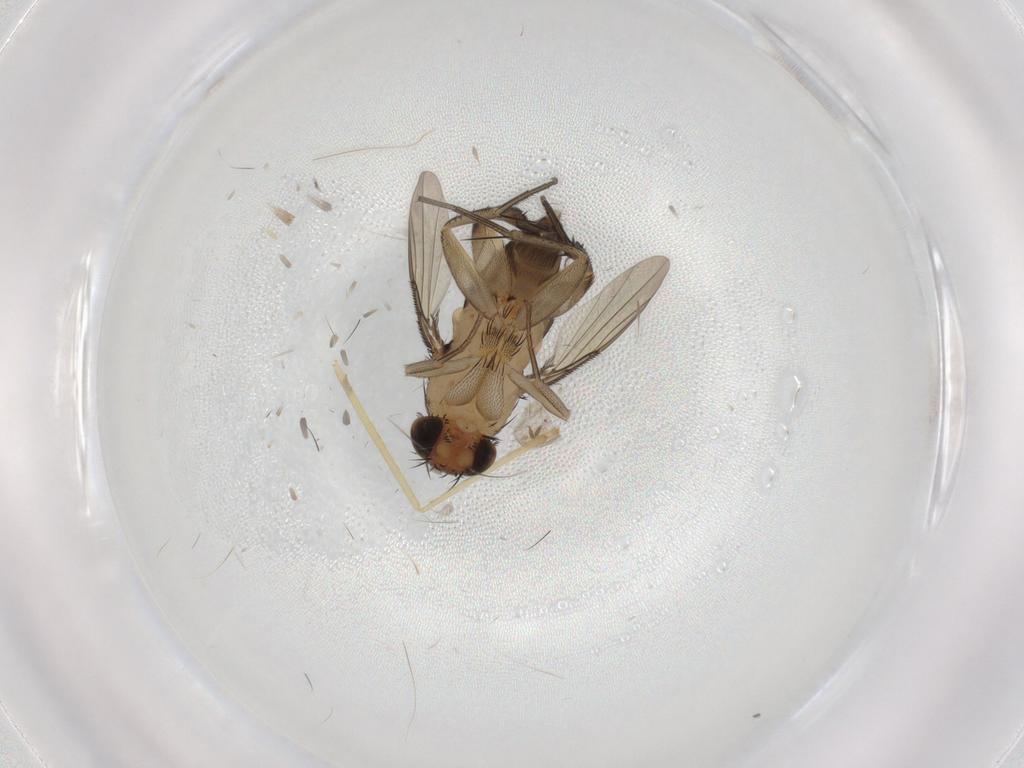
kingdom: Animalia
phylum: Arthropoda
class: Insecta
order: Diptera
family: Phoridae
